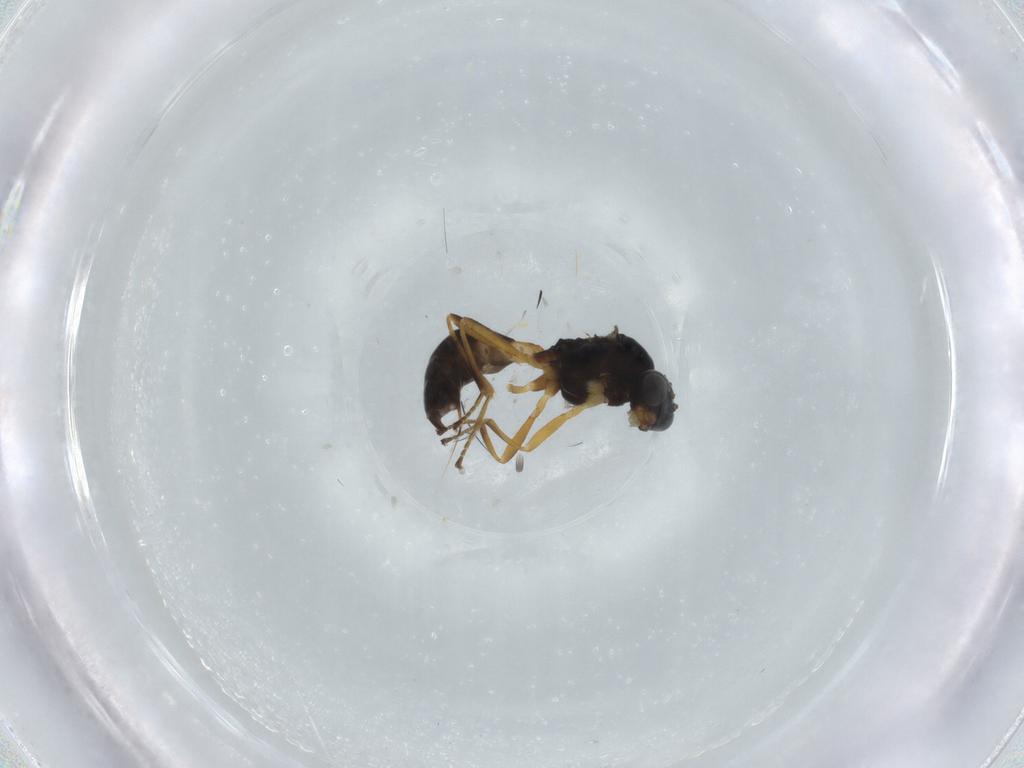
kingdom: Animalia
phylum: Arthropoda
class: Insecta
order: Hymenoptera
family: Braconidae
